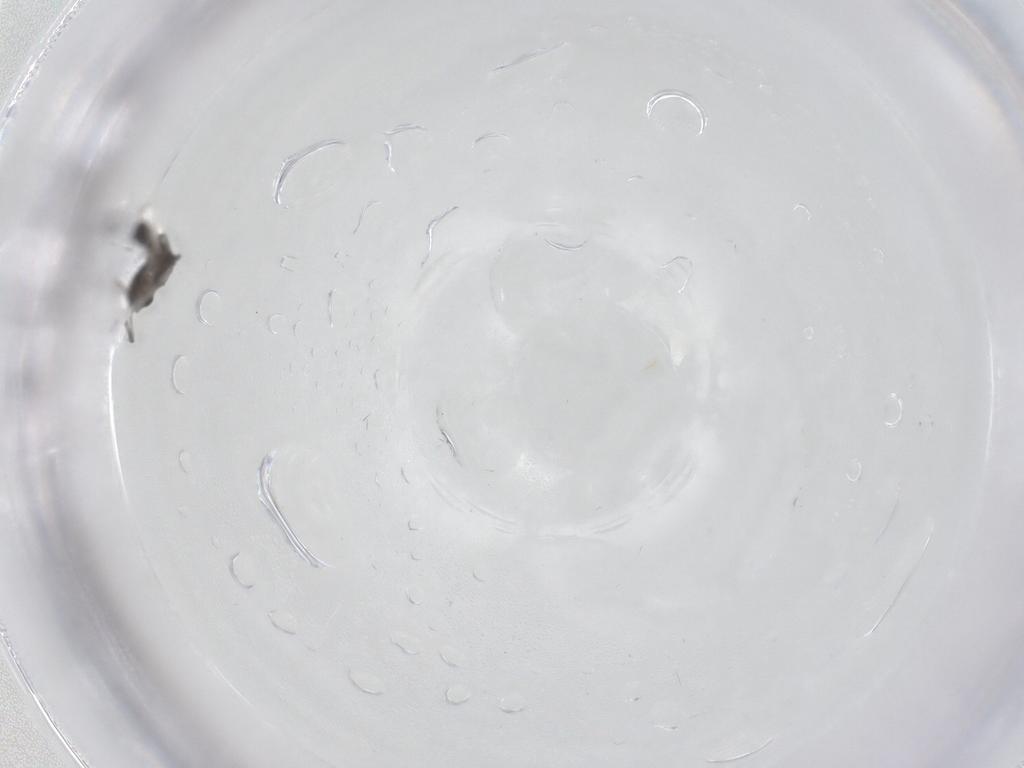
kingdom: Animalia
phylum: Arthropoda
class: Insecta
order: Diptera
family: Ceratopogonidae
